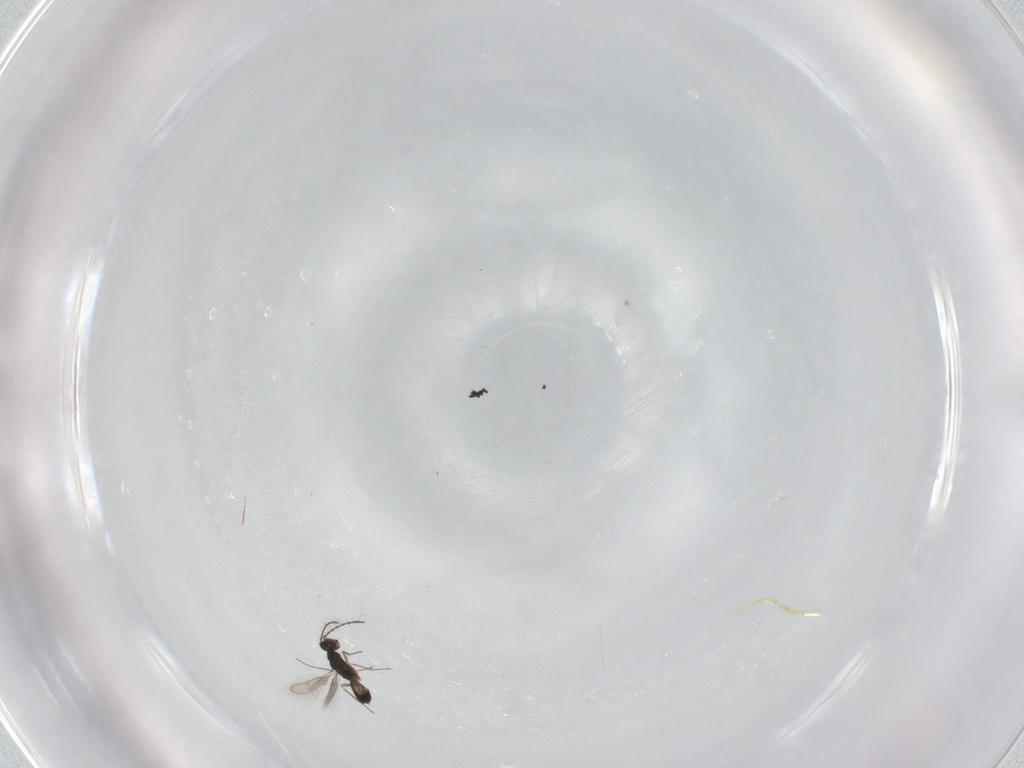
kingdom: Animalia
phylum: Arthropoda
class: Insecta
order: Hymenoptera
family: Pteromalidae
